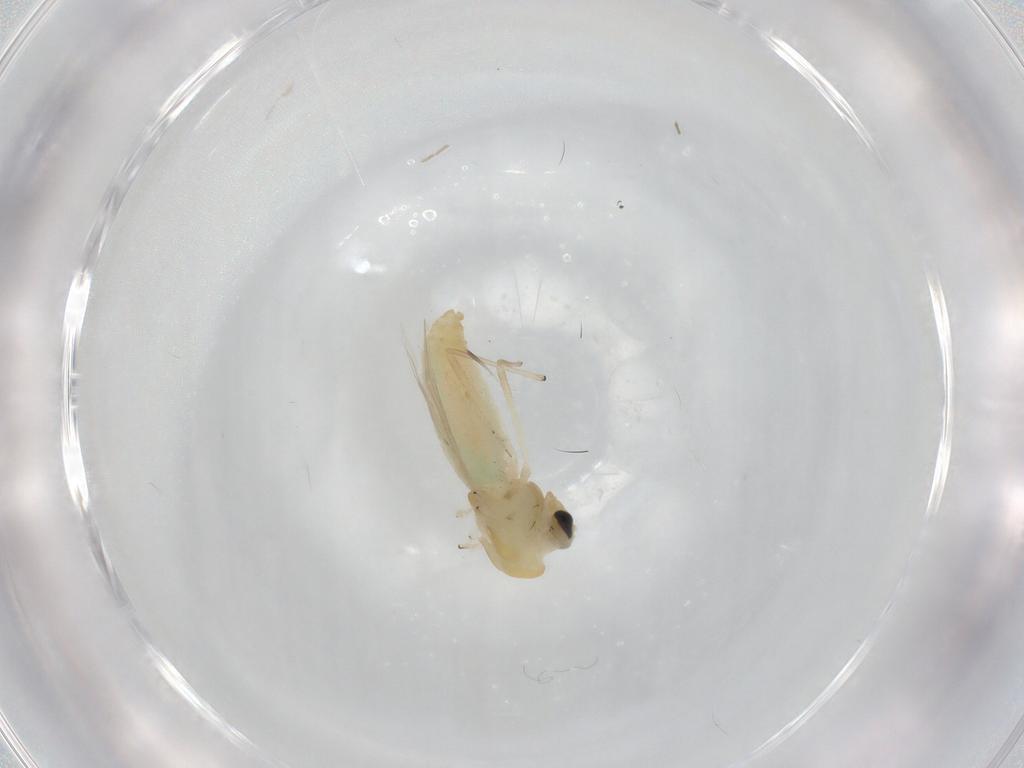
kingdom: Animalia
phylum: Arthropoda
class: Insecta
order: Diptera
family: Chironomidae
